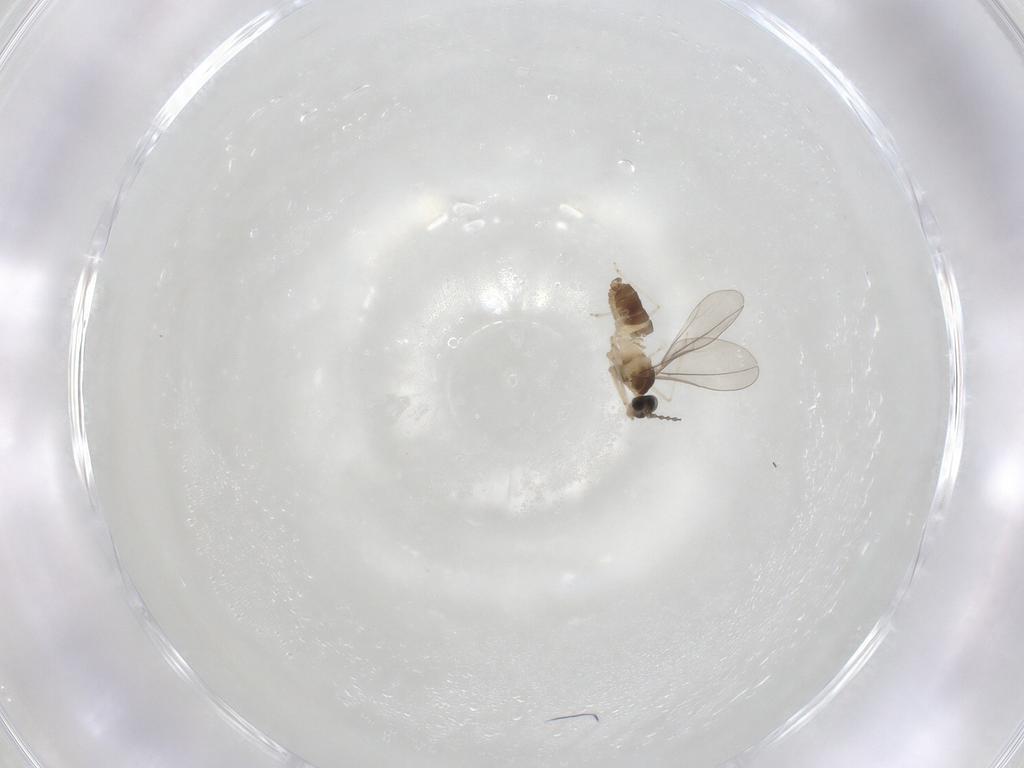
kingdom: Animalia
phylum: Arthropoda
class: Insecta
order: Diptera
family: Cecidomyiidae
